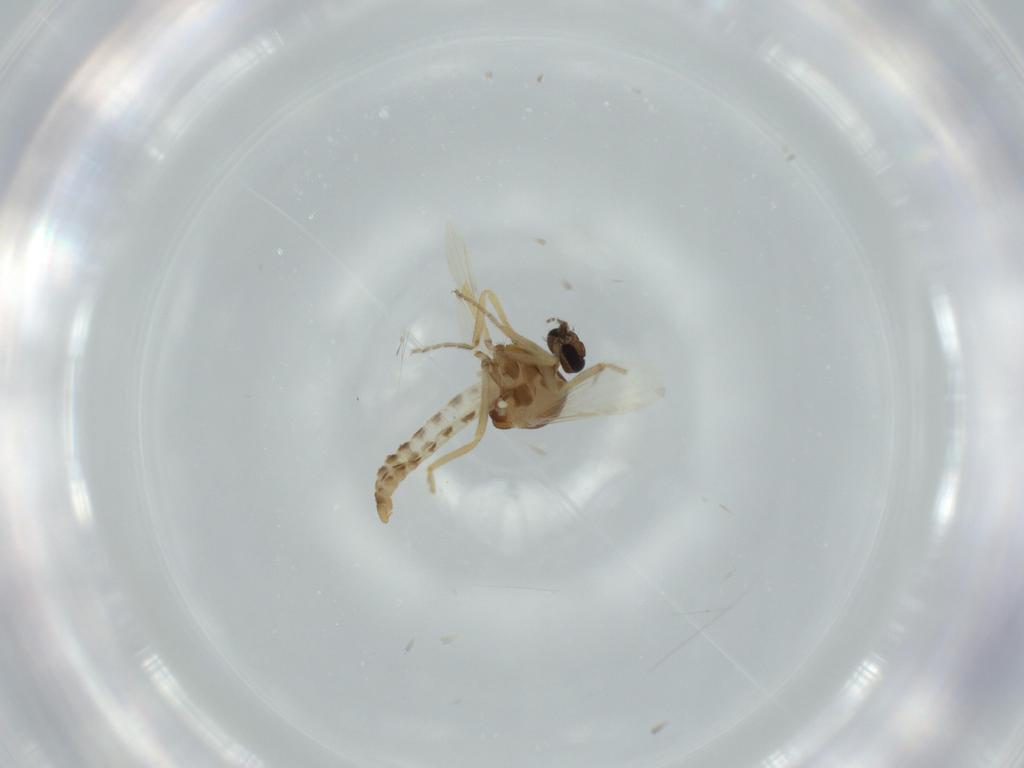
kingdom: Animalia
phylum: Arthropoda
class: Insecta
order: Diptera
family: Ceratopogonidae
